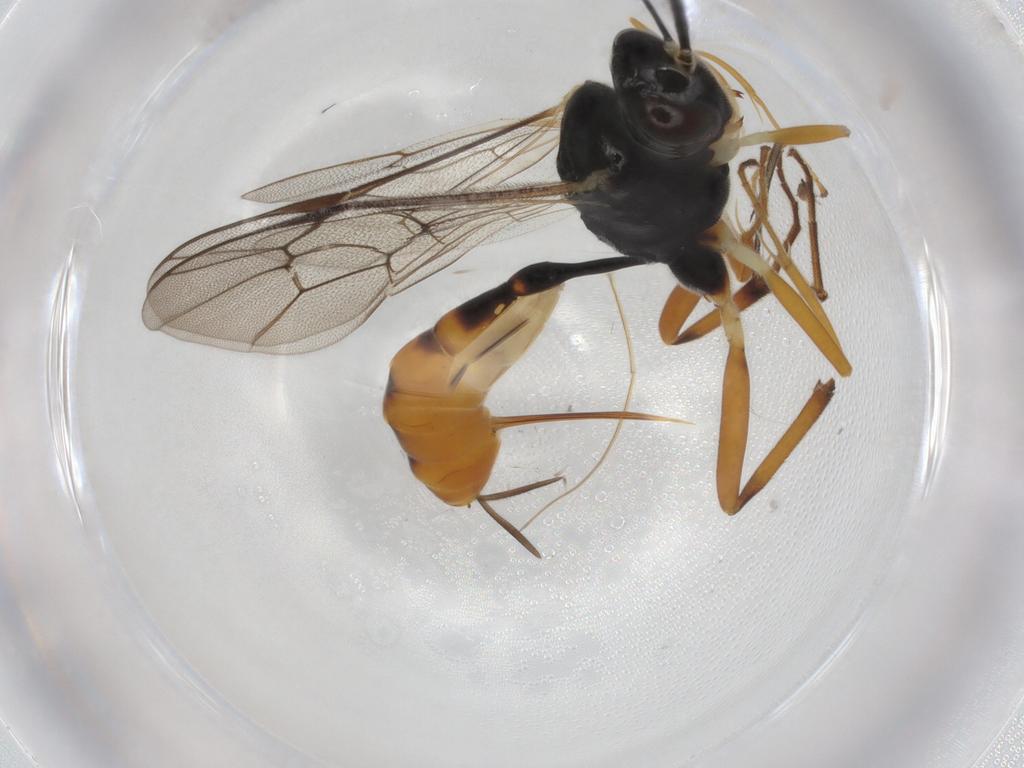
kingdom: Animalia
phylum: Arthropoda
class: Insecta
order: Hymenoptera
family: Ichneumonidae
